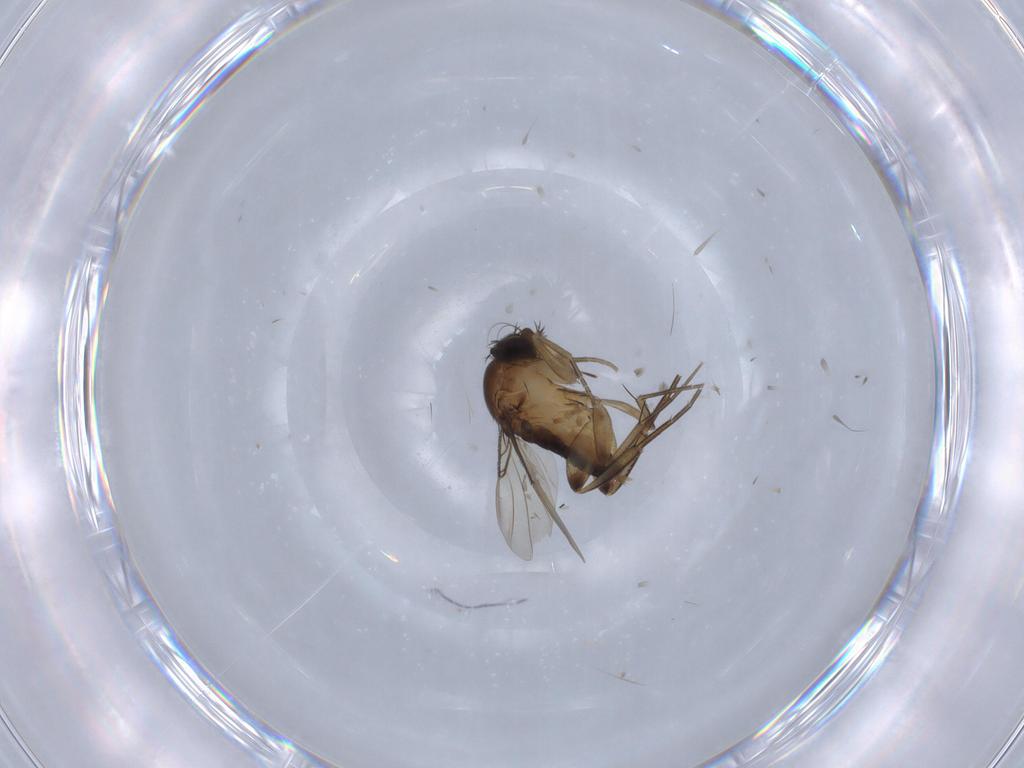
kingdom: Animalia
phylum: Arthropoda
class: Insecta
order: Diptera
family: Phoridae
